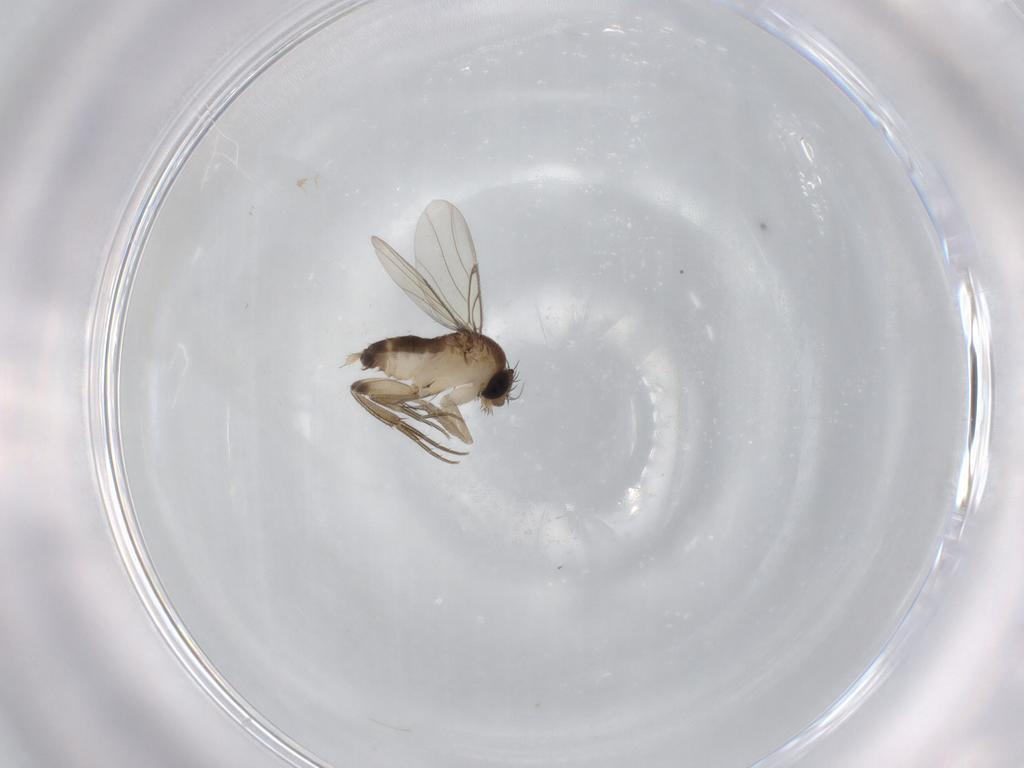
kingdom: Animalia
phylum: Arthropoda
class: Insecta
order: Diptera
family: Phoridae
